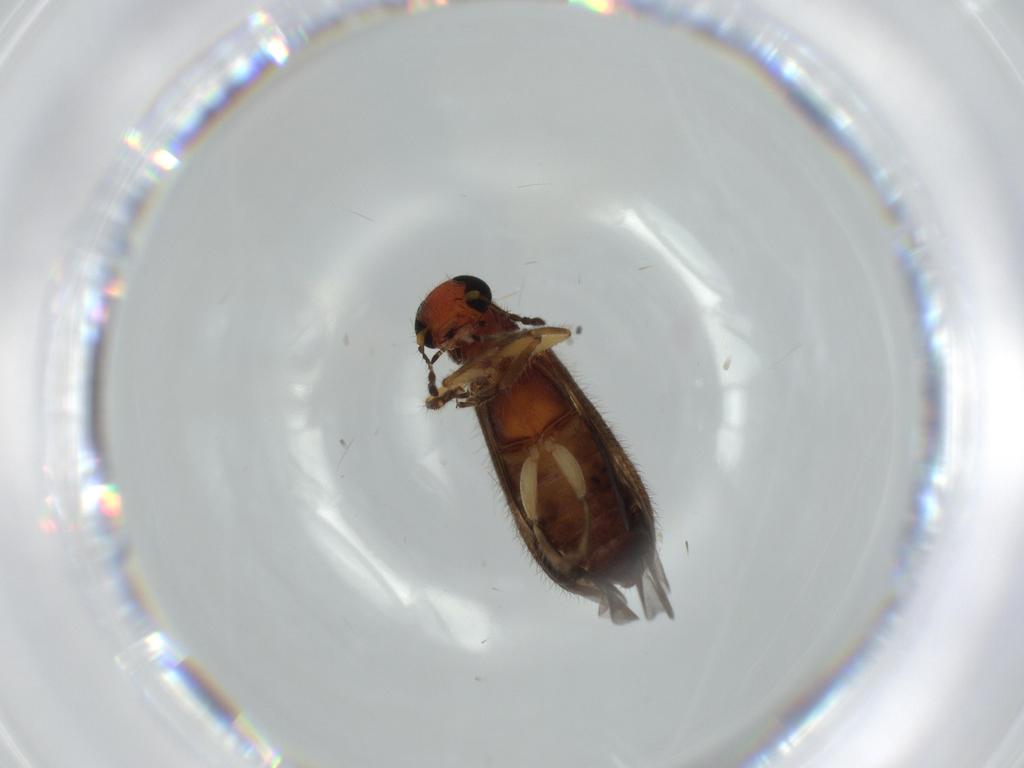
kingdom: Animalia
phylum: Arthropoda
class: Insecta
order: Coleoptera
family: Cleridae
